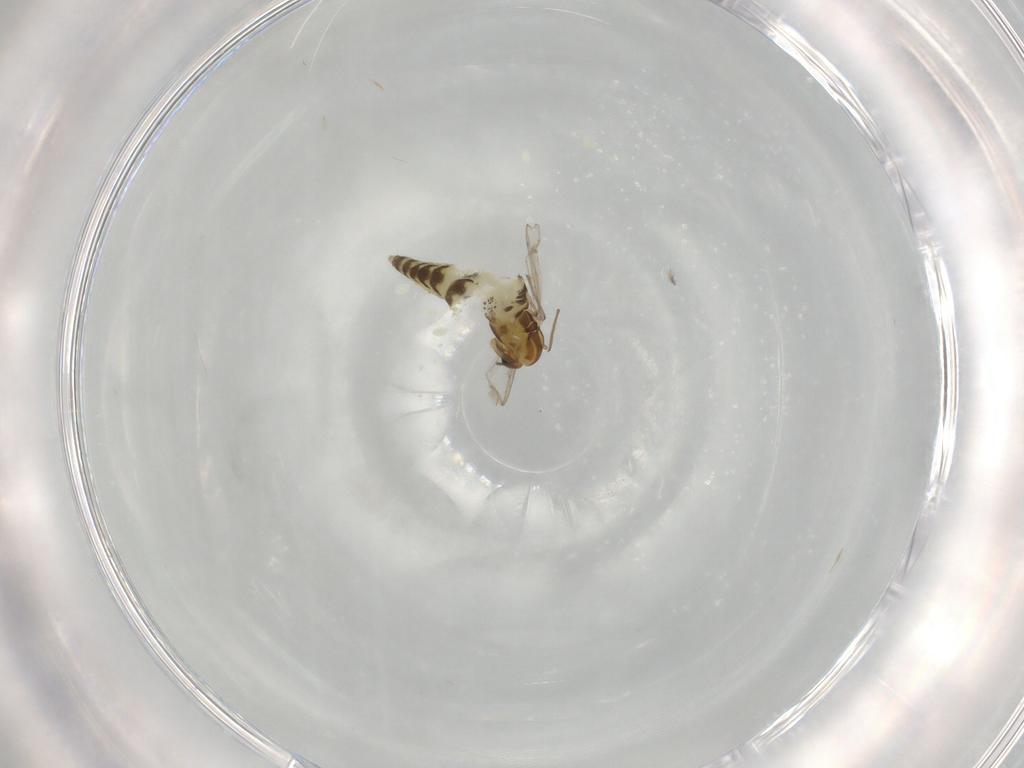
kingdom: Animalia
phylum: Arthropoda
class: Insecta
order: Diptera
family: Chironomidae
